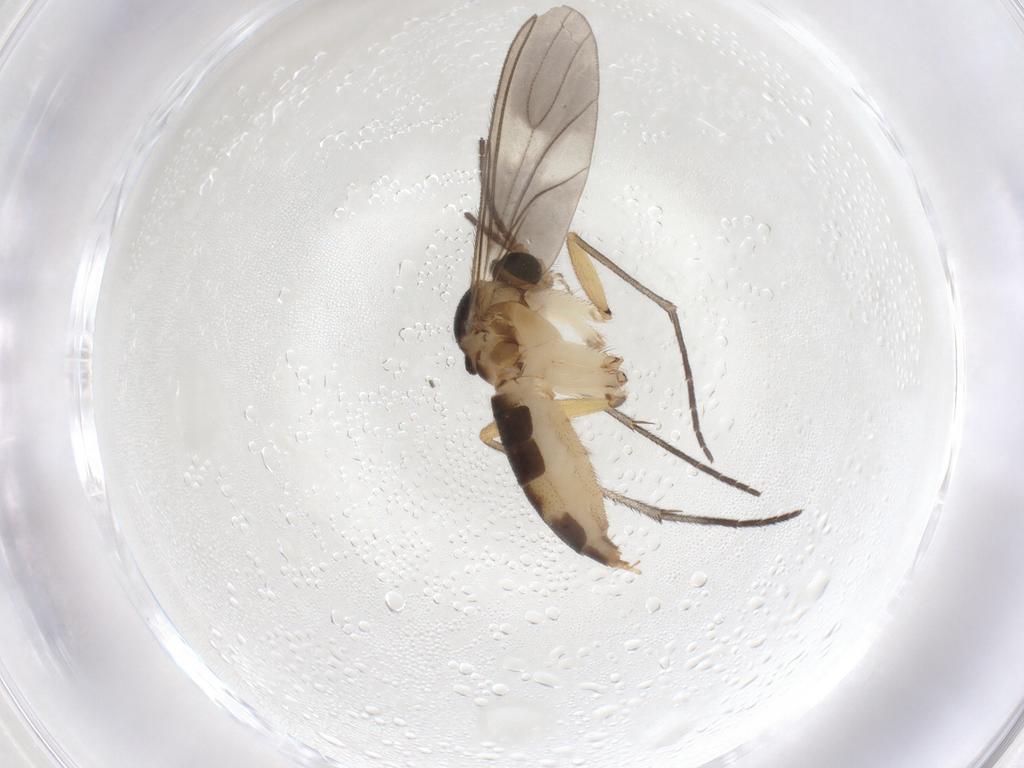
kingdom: Animalia
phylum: Arthropoda
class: Insecta
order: Diptera
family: Sciaridae
